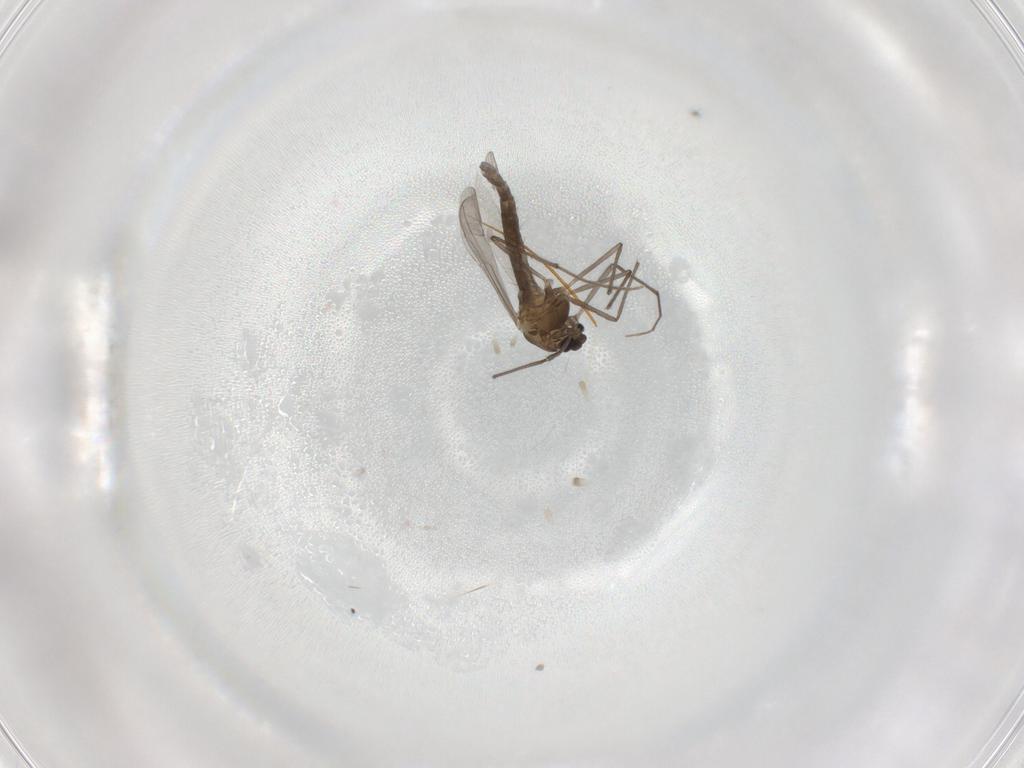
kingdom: Animalia
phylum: Arthropoda
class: Insecta
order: Diptera
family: Chironomidae
